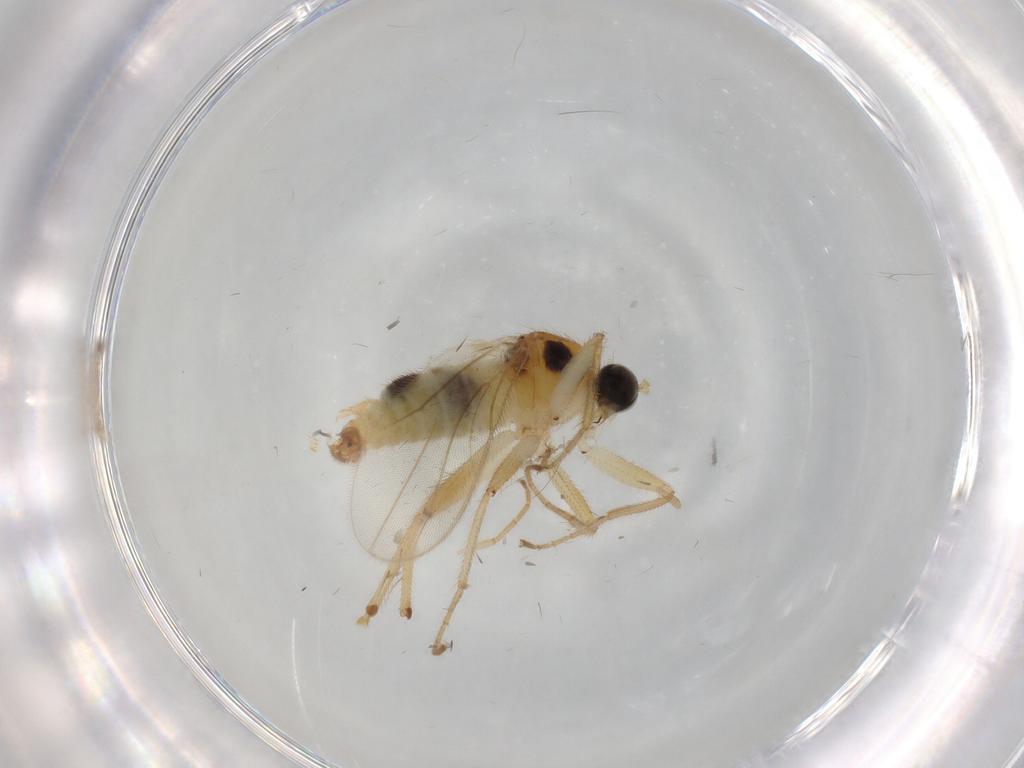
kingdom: Animalia
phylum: Arthropoda
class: Insecta
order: Diptera
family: Hybotidae
